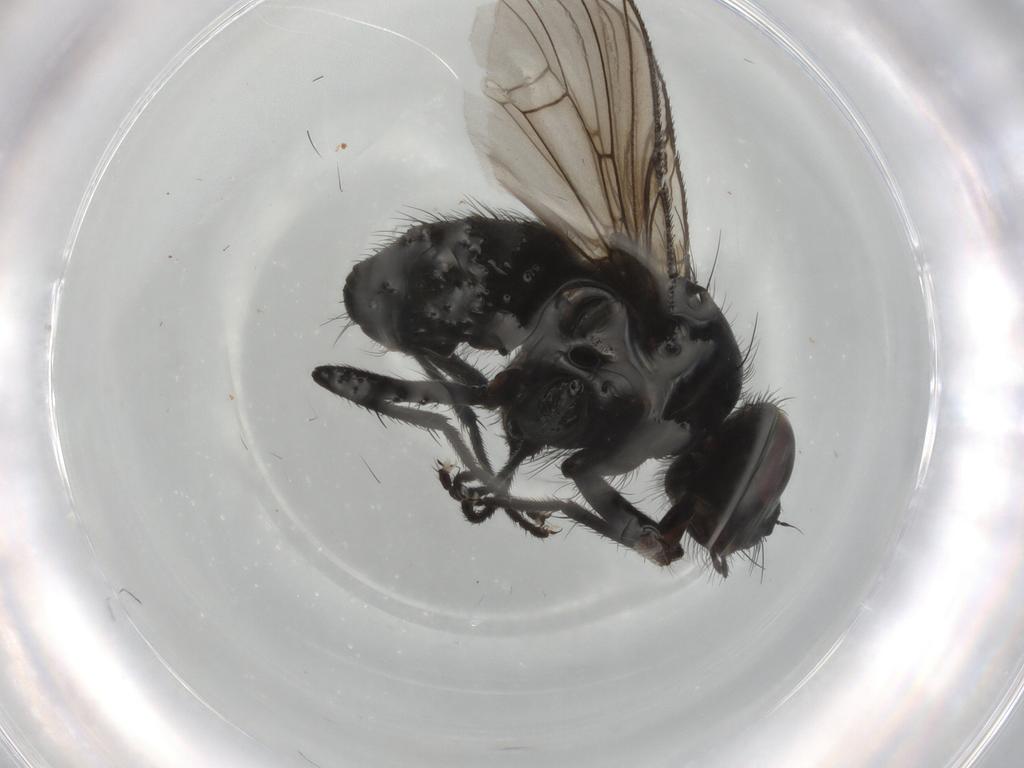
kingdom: Animalia
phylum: Arthropoda
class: Insecta
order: Diptera
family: Muscidae
